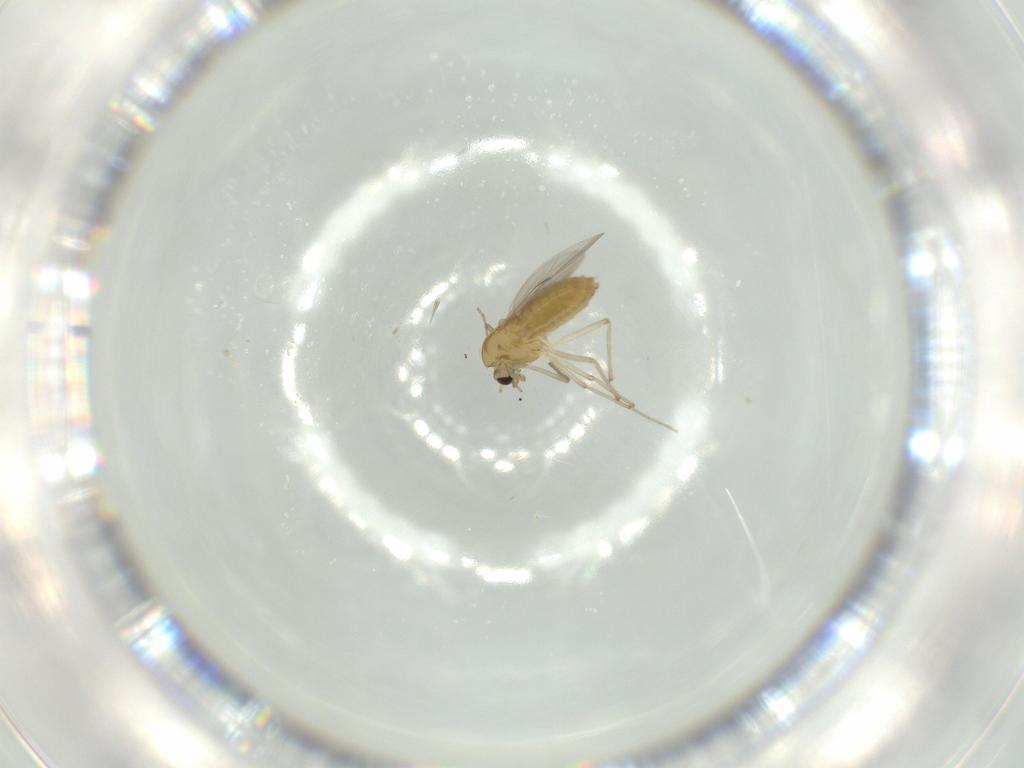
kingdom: Animalia
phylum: Arthropoda
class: Insecta
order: Diptera
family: Chironomidae
